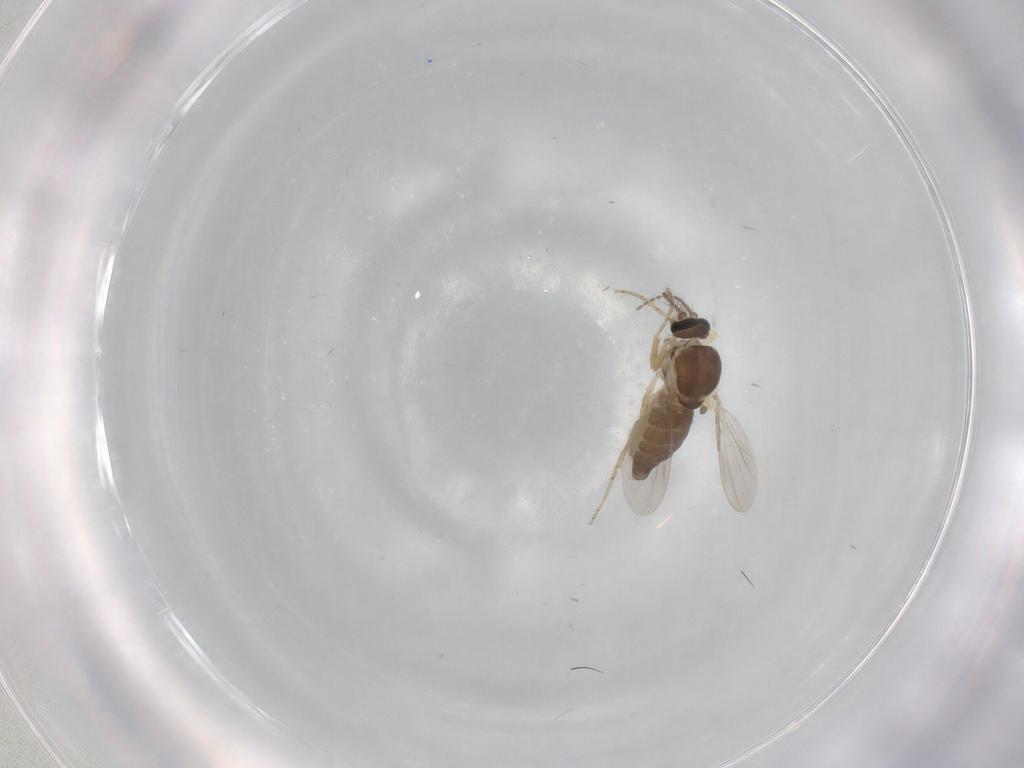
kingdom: Animalia
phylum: Arthropoda
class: Insecta
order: Diptera
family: Ceratopogonidae
